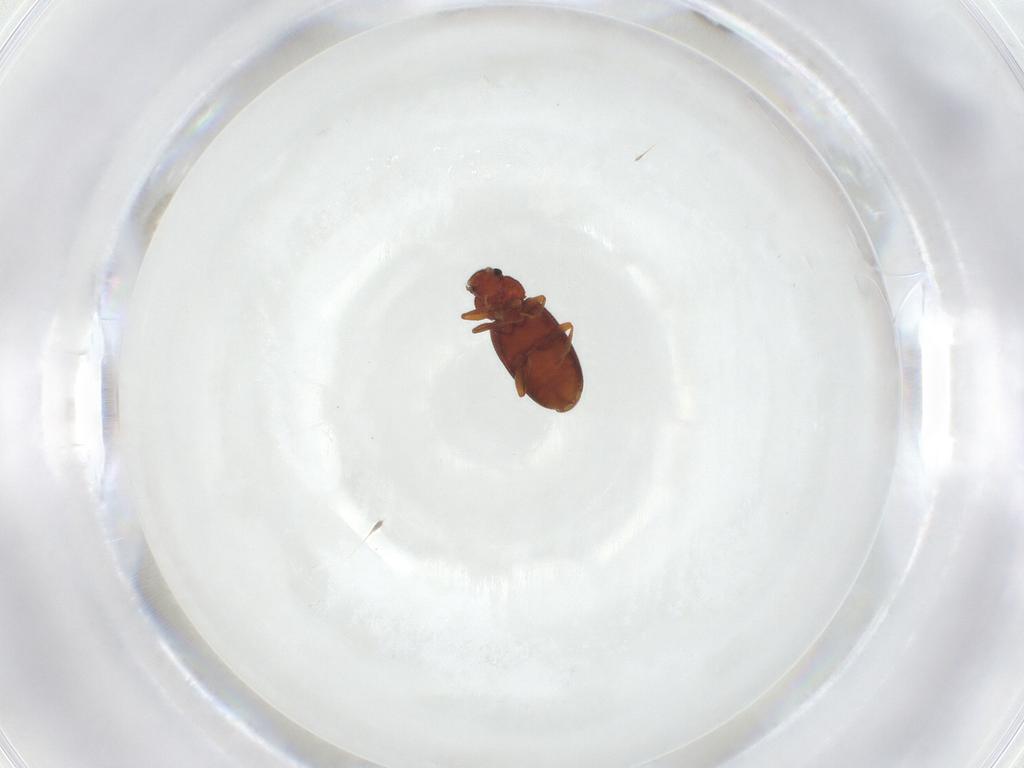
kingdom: Animalia
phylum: Arthropoda
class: Insecta
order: Coleoptera
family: Latridiidae
